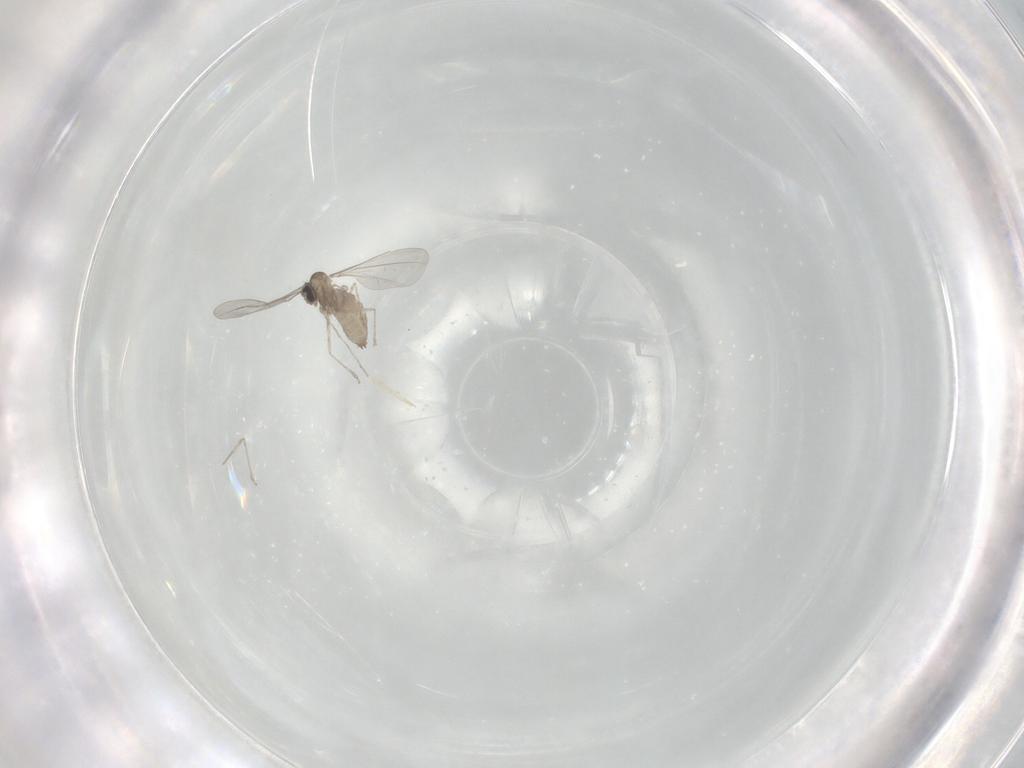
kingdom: Animalia
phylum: Arthropoda
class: Insecta
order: Diptera
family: Cecidomyiidae
